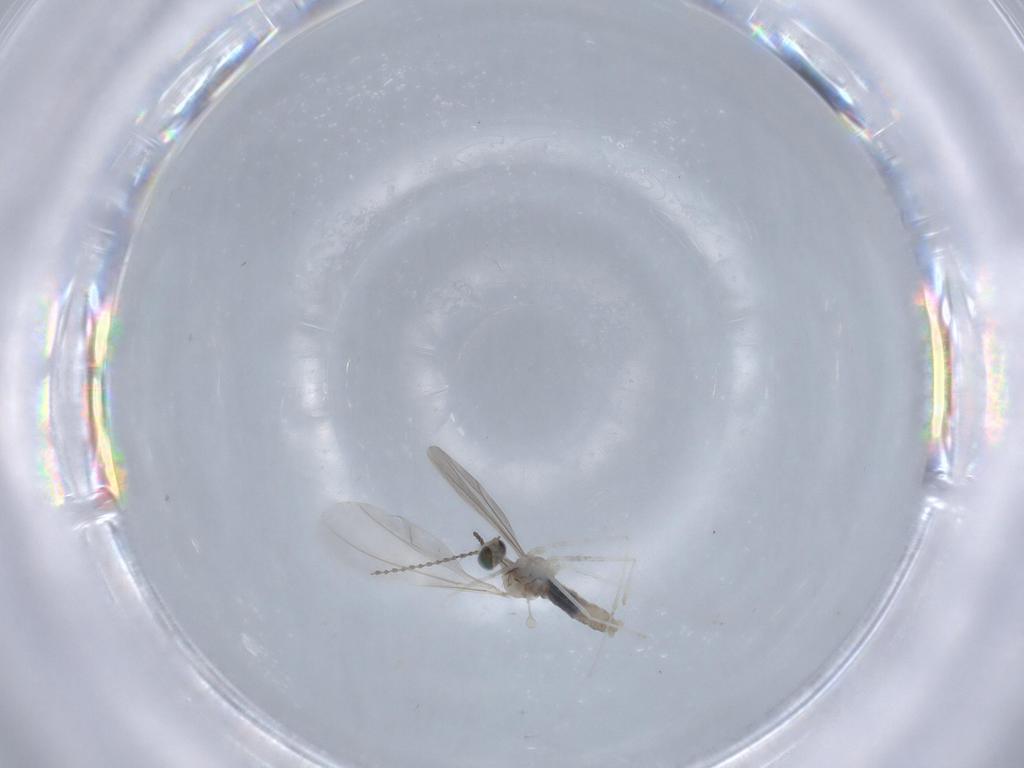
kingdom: Animalia
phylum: Arthropoda
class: Insecta
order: Diptera
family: Cecidomyiidae
